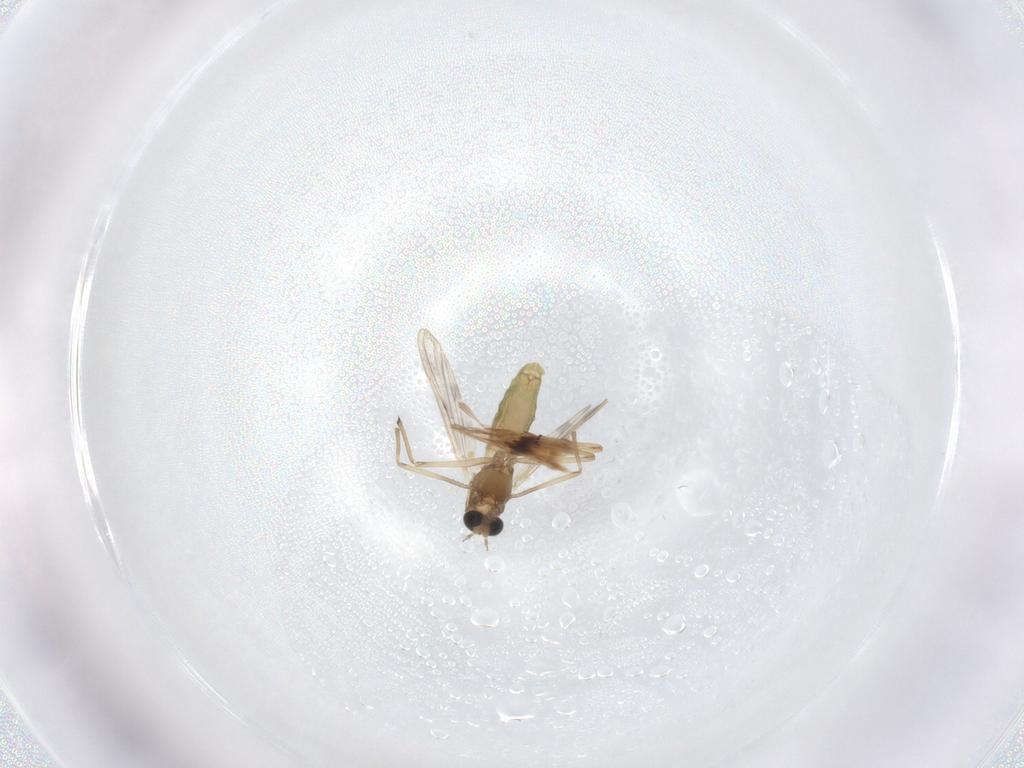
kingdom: Animalia
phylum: Arthropoda
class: Insecta
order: Diptera
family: Cecidomyiidae
